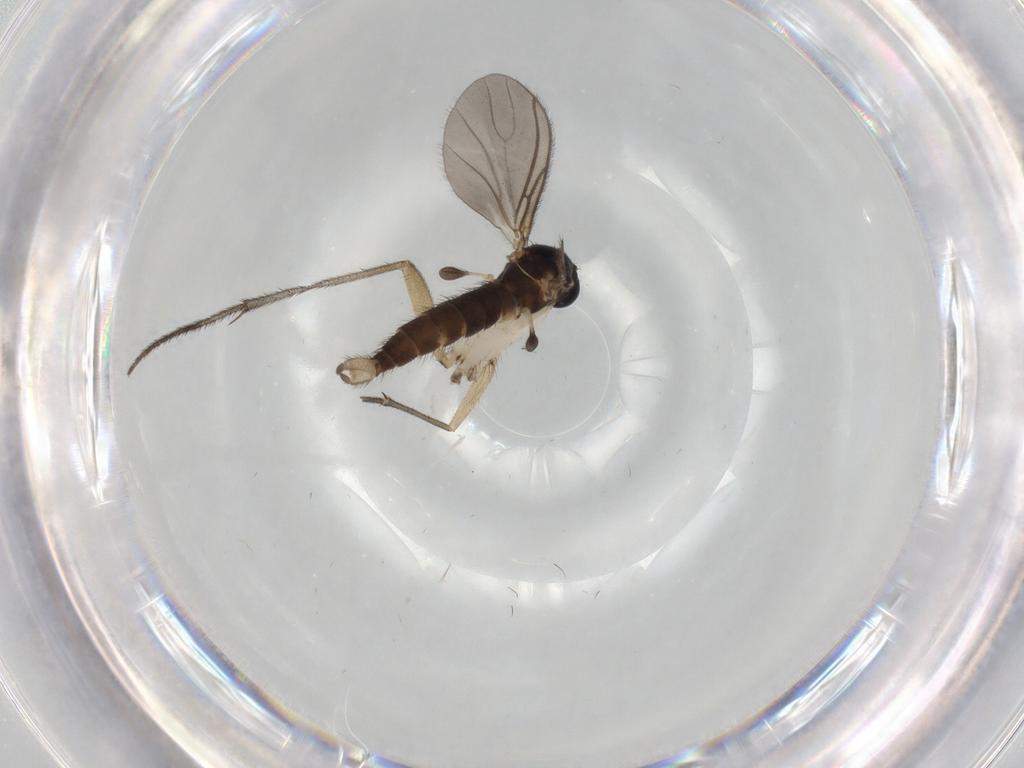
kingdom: Animalia
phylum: Arthropoda
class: Insecta
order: Diptera
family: Sciaridae
